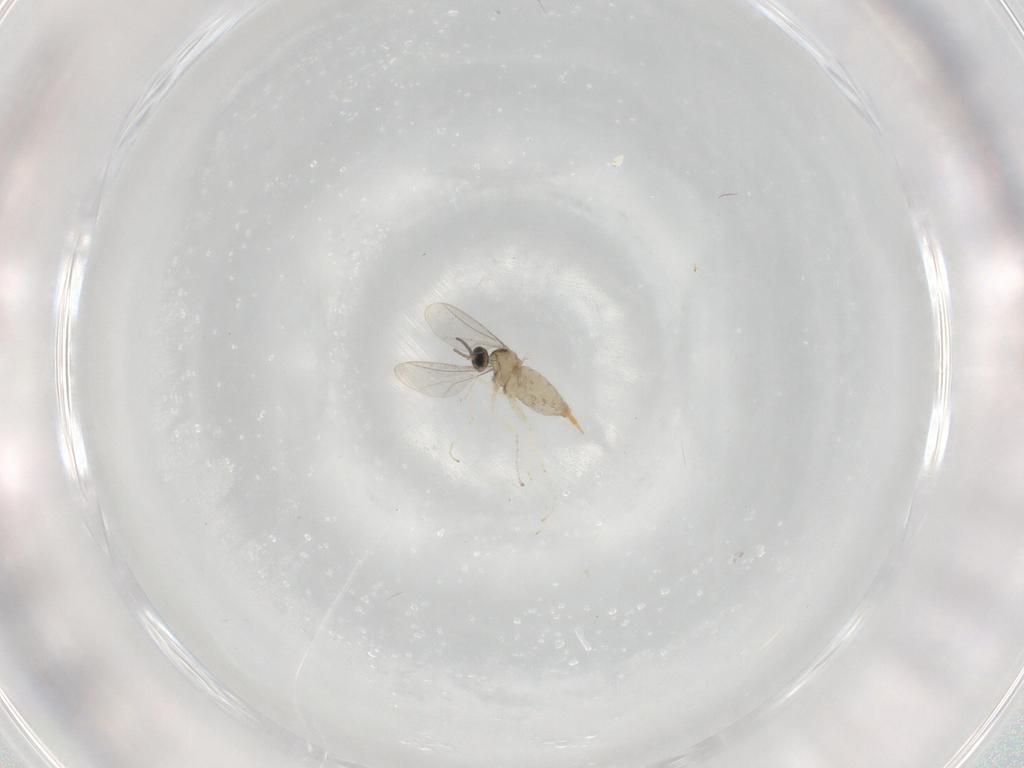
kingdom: Animalia
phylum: Arthropoda
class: Insecta
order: Diptera
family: Cecidomyiidae
